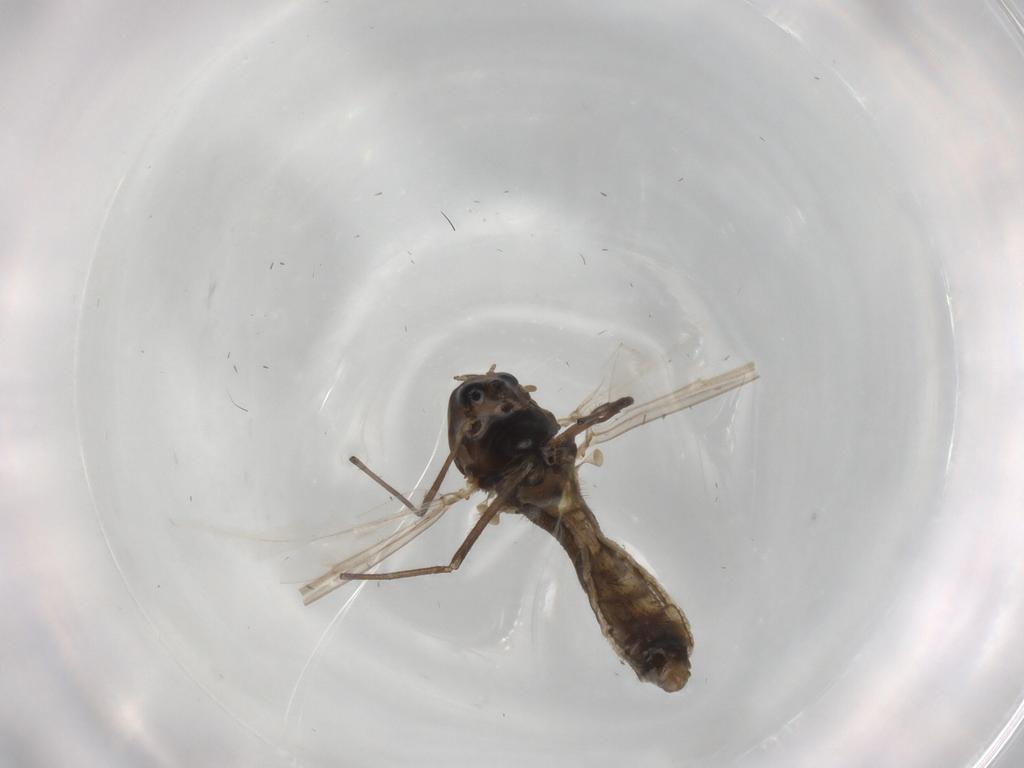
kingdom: Animalia
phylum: Arthropoda
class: Insecta
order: Diptera
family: Chironomidae
